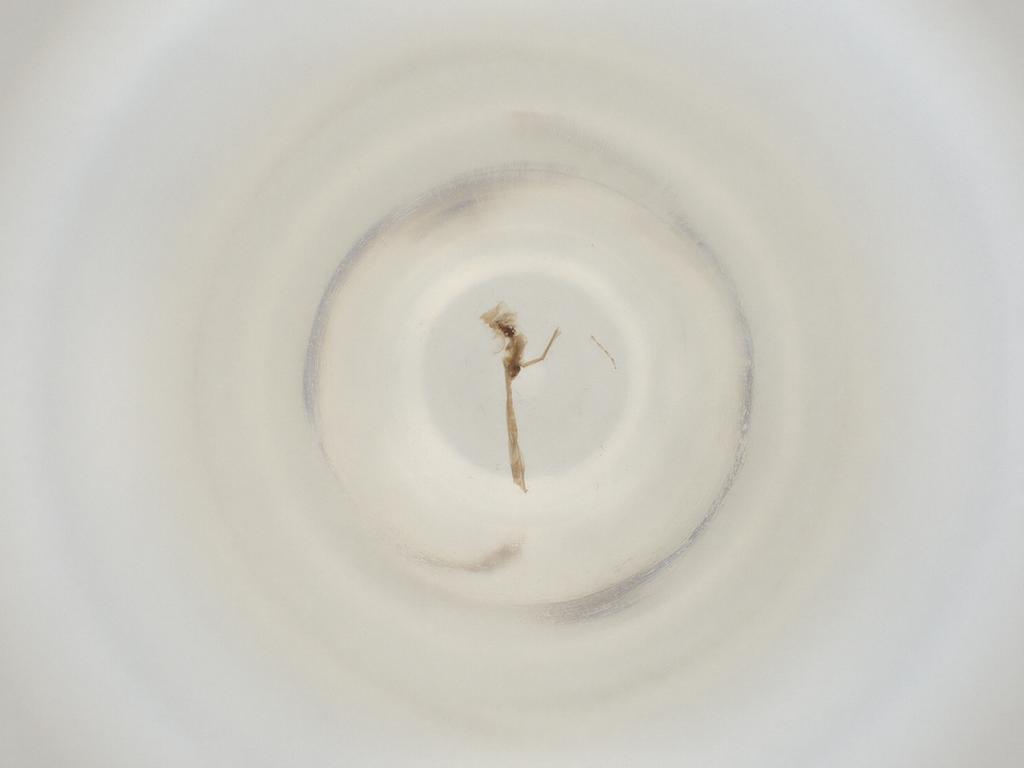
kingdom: Animalia
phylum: Arthropoda
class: Insecta
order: Diptera
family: Cecidomyiidae
